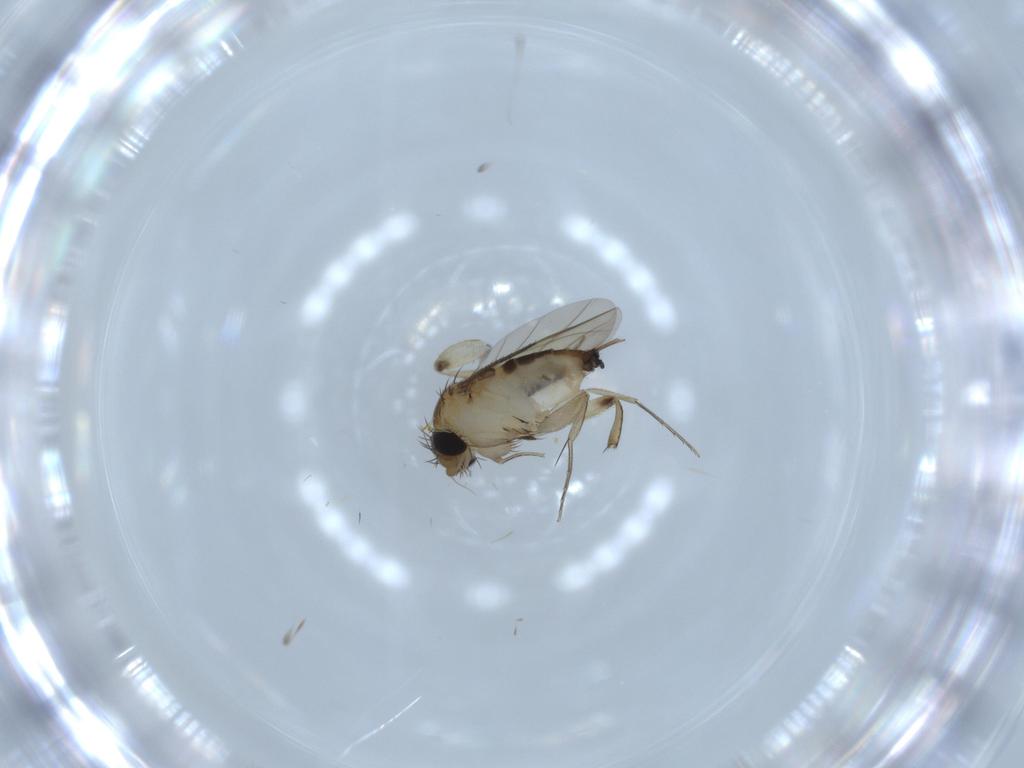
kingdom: Animalia
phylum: Arthropoda
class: Insecta
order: Diptera
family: Phoridae
